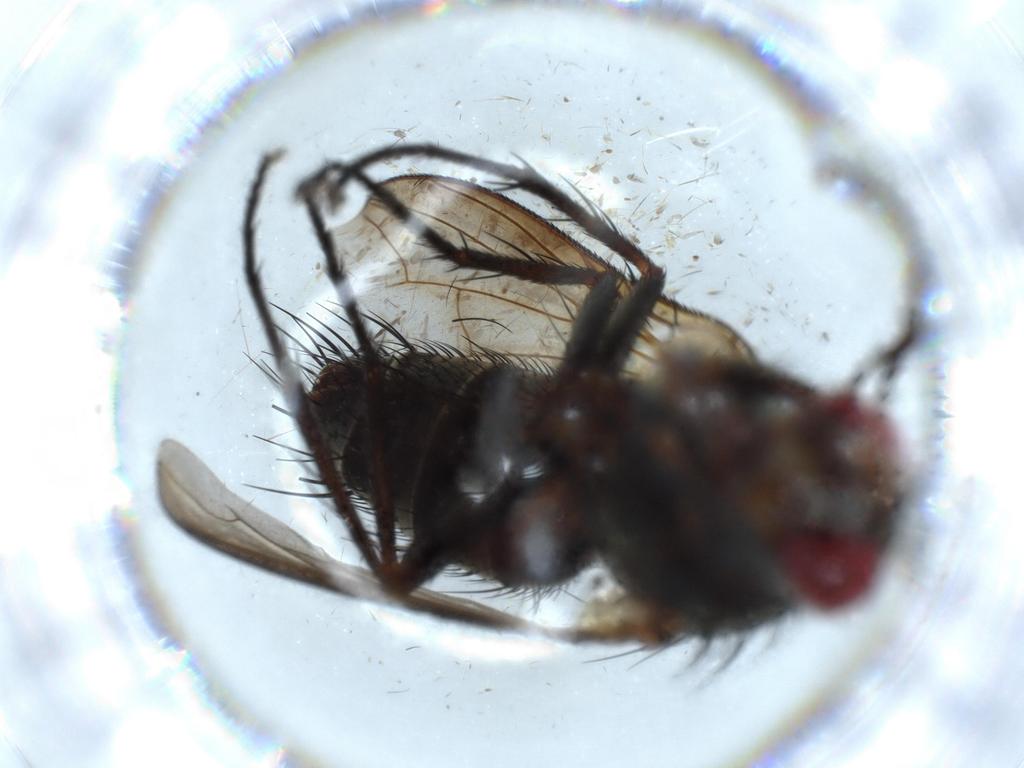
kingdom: Animalia
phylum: Arthropoda
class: Insecta
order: Diptera
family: Sciaridae
